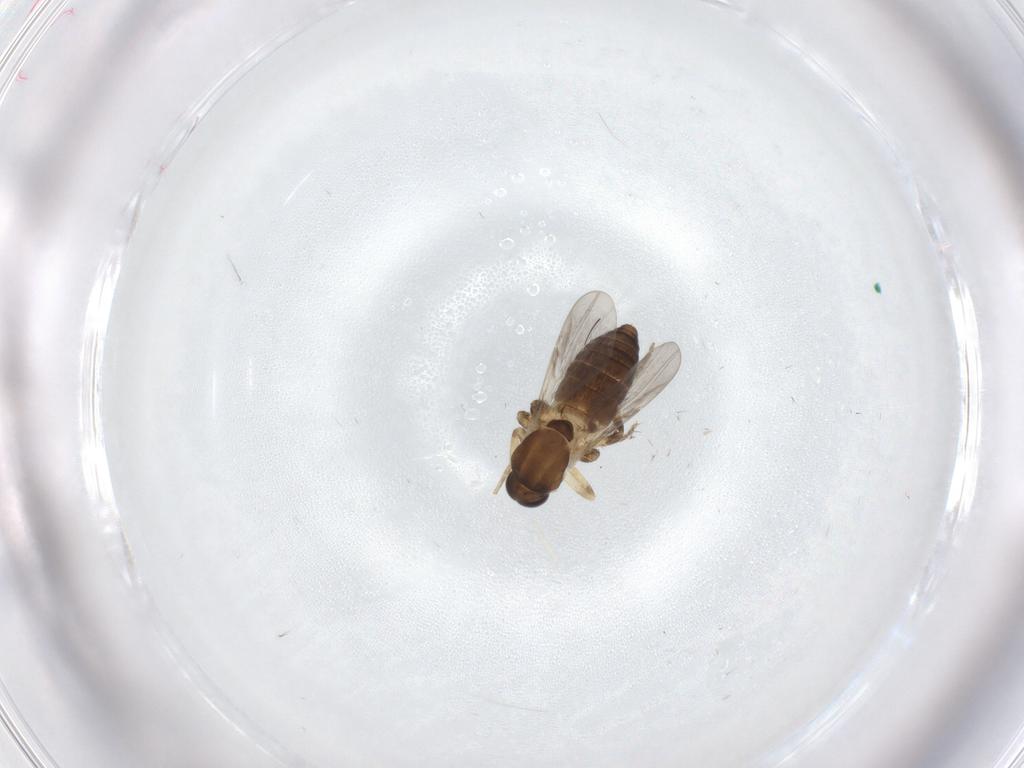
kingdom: Animalia
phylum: Arthropoda
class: Insecta
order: Diptera
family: Ceratopogonidae
